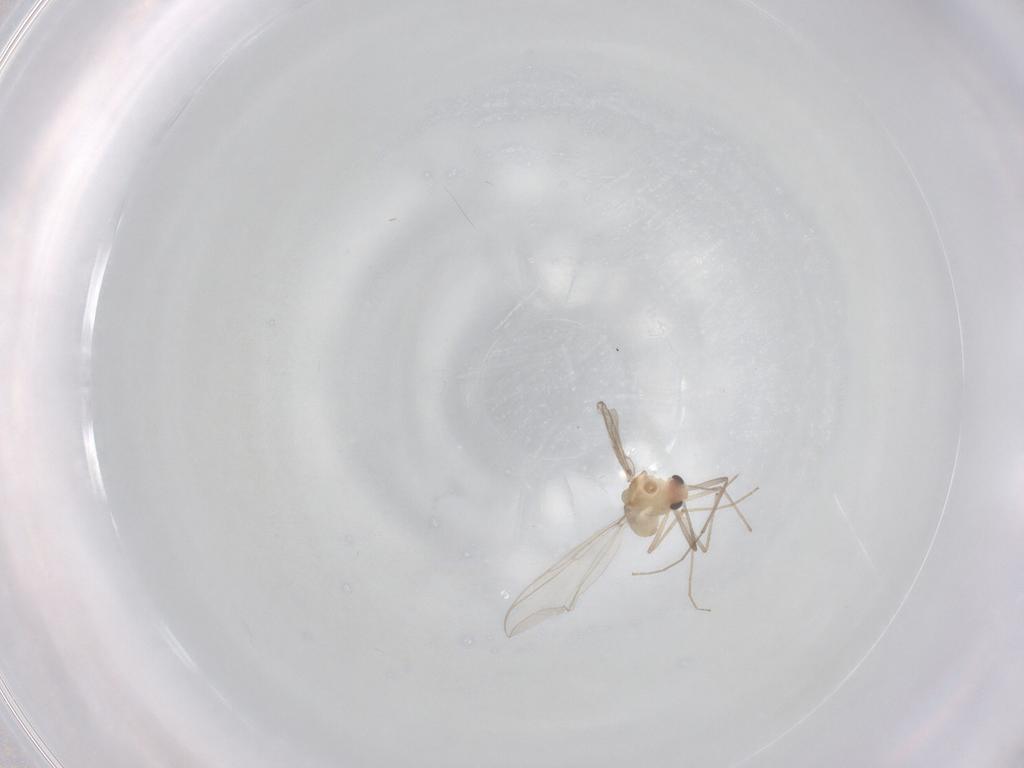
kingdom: Animalia
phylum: Arthropoda
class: Insecta
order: Diptera
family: Chironomidae
